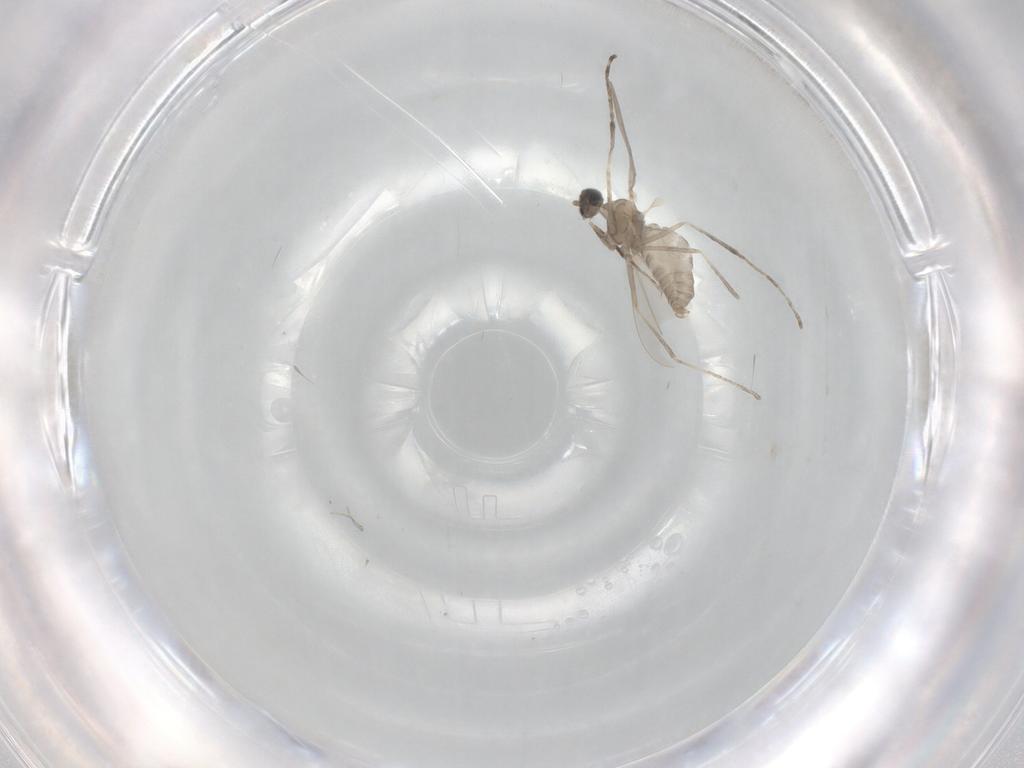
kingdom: Animalia
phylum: Arthropoda
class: Insecta
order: Diptera
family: Cecidomyiidae
